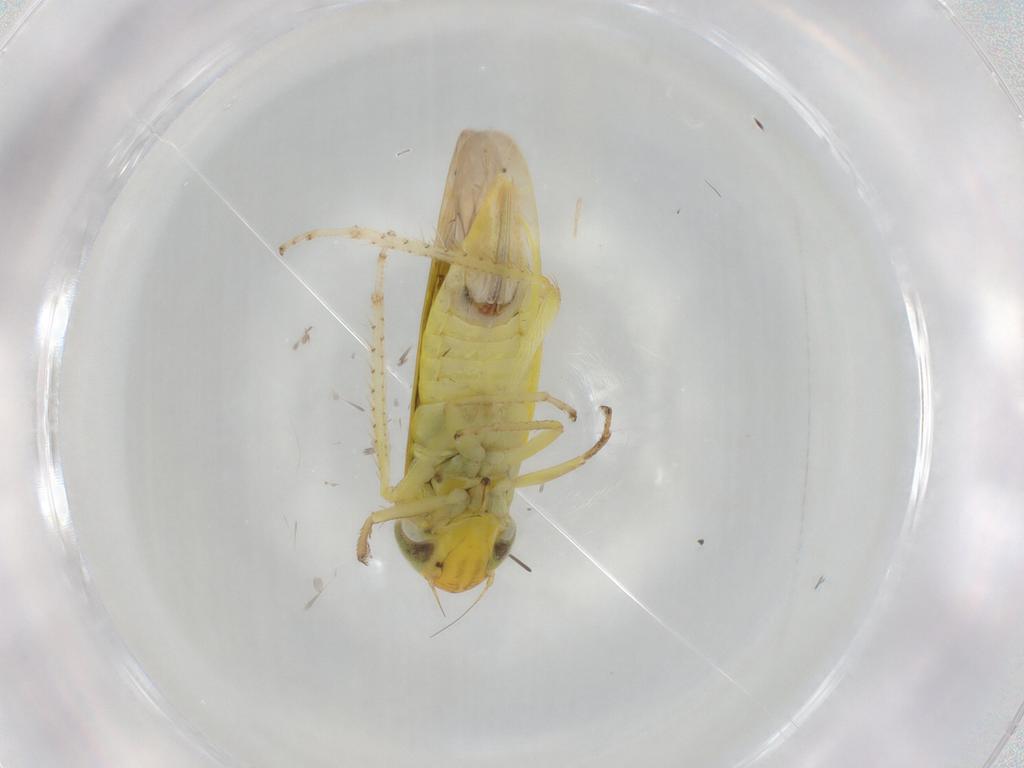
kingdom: Animalia
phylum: Arthropoda
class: Insecta
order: Hemiptera
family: Cicadellidae
